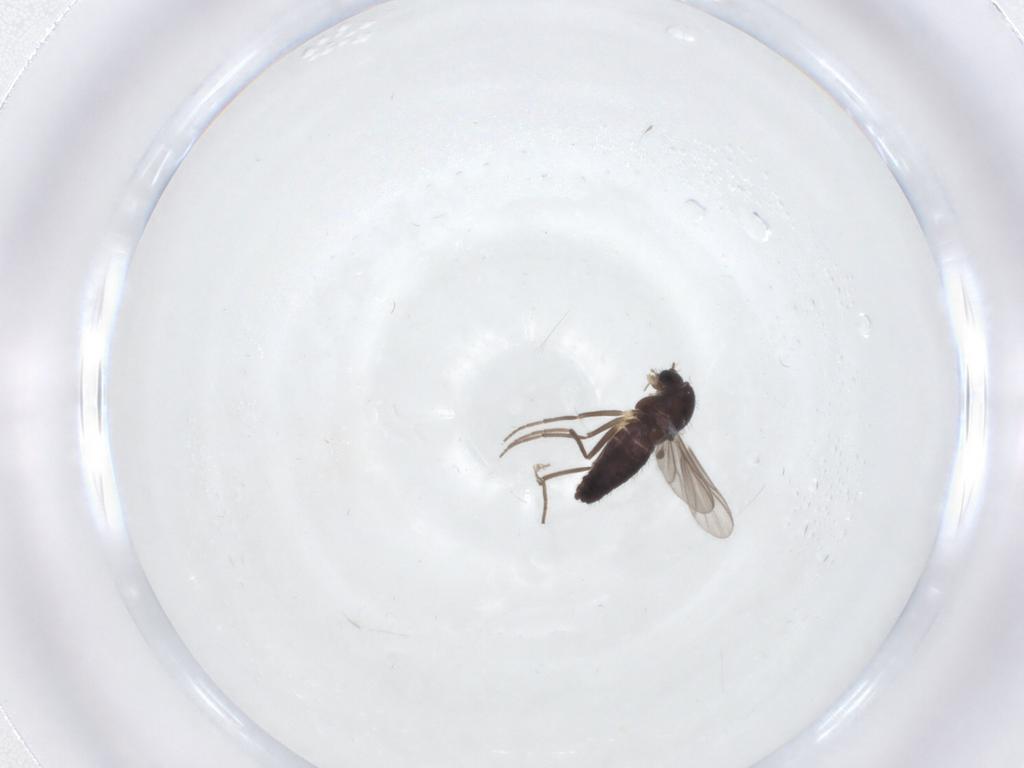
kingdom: Animalia
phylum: Arthropoda
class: Insecta
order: Diptera
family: Chironomidae
